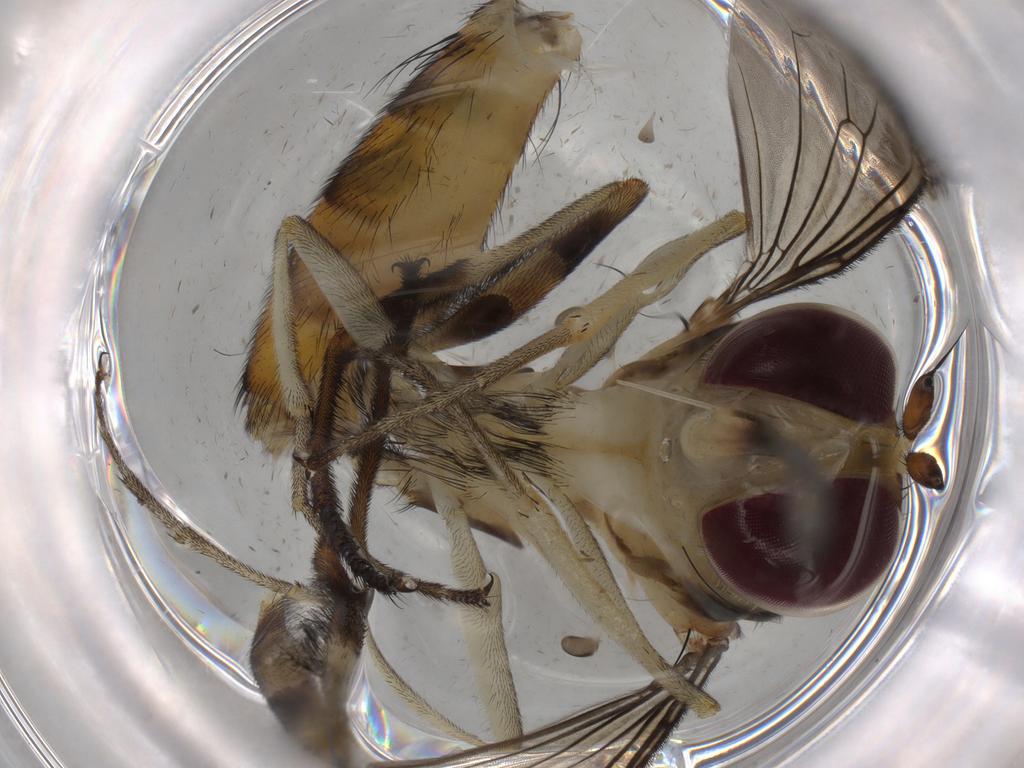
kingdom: Animalia
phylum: Arthropoda
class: Insecta
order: Diptera
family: Cecidomyiidae
